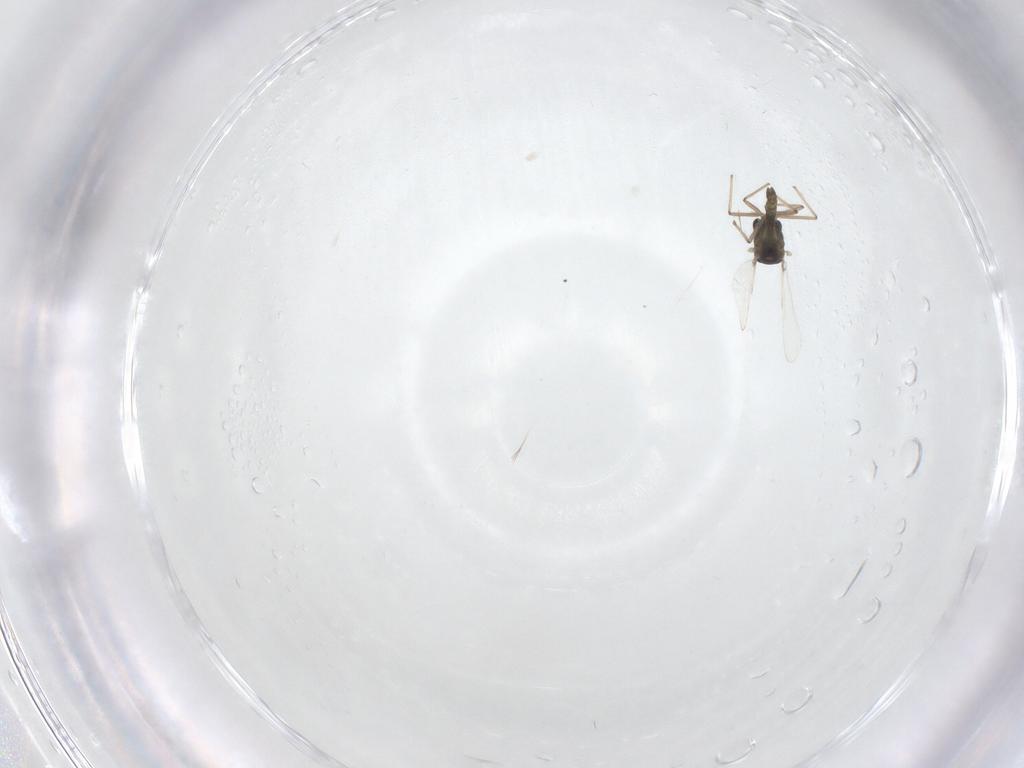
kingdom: Animalia
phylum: Arthropoda
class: Insecta
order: Diptera
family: Chironomidae
